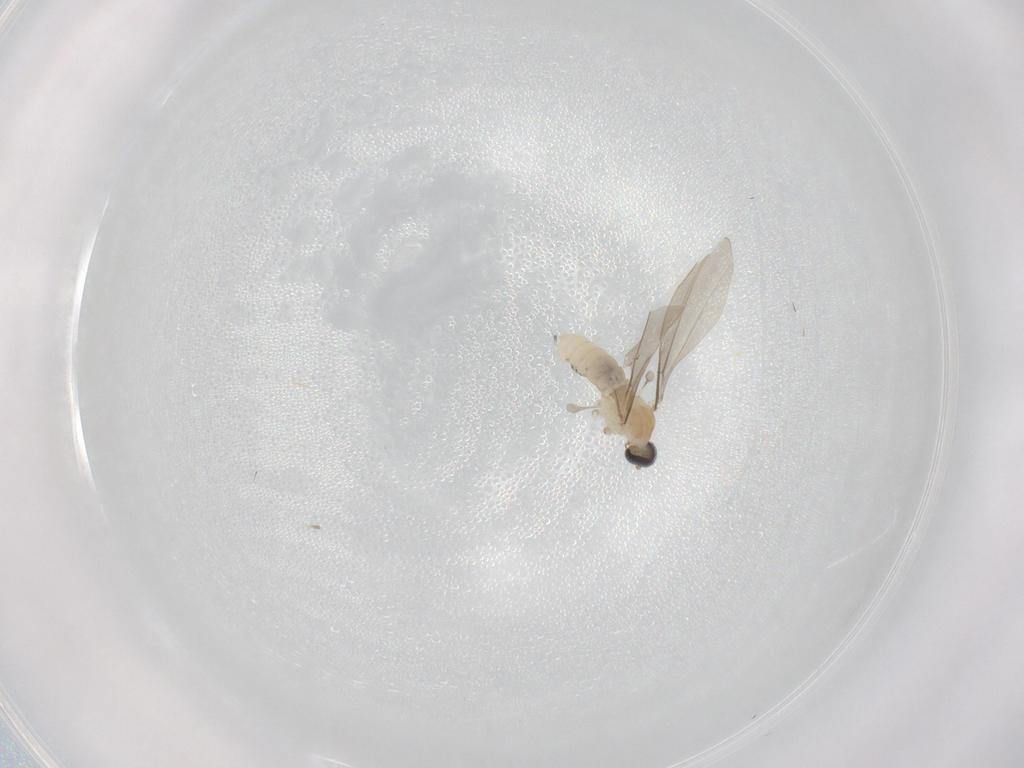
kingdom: Animalia
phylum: Arthropoda
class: Insecta
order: Diptera
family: Cecidomyiidae
